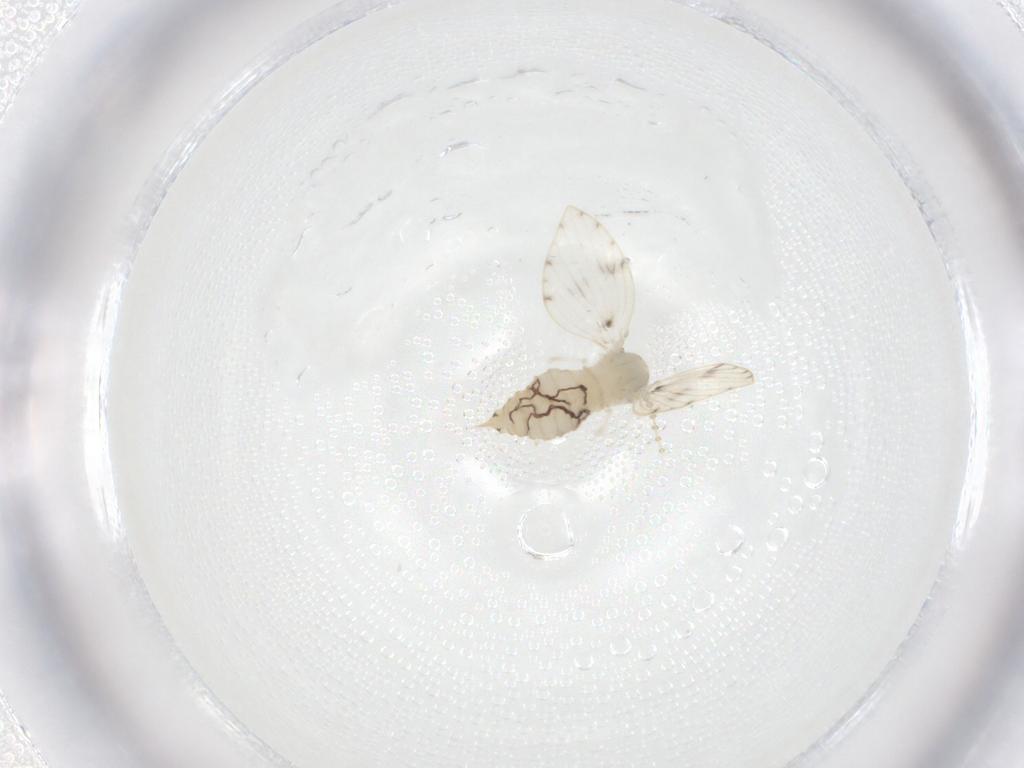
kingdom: Animalia
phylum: Arthropoda
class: Insecta
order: Diptera
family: Psychodidae
